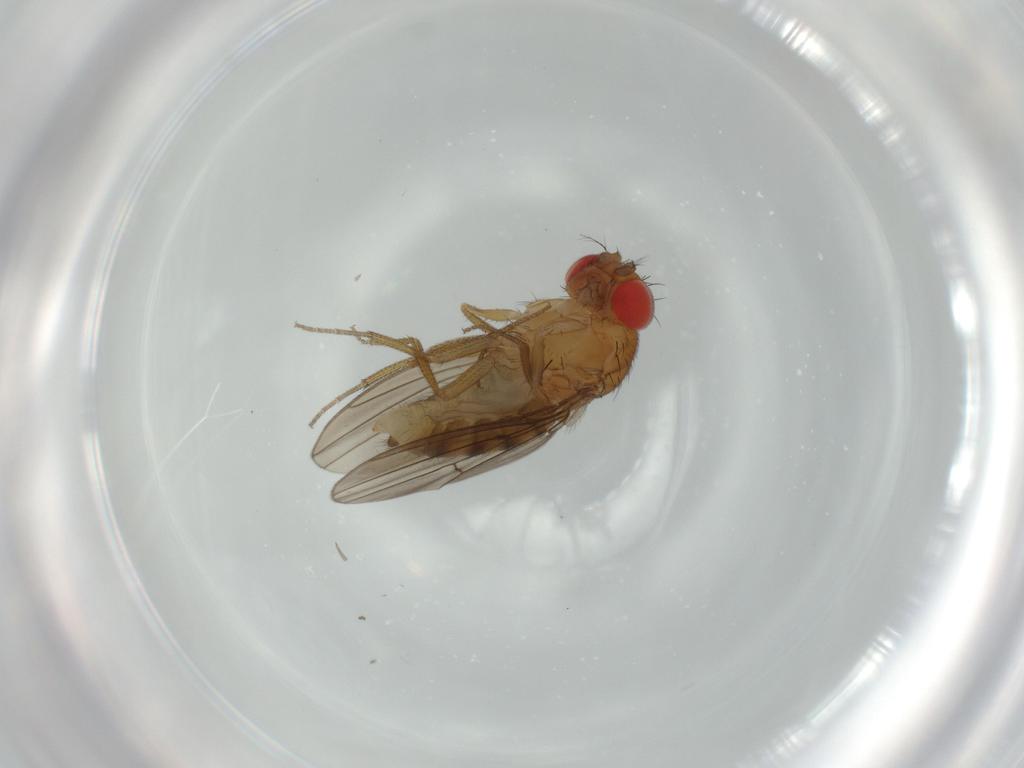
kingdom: Animalia
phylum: Arthropoda
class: Insecta
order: Diptera
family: Drosophilidae
